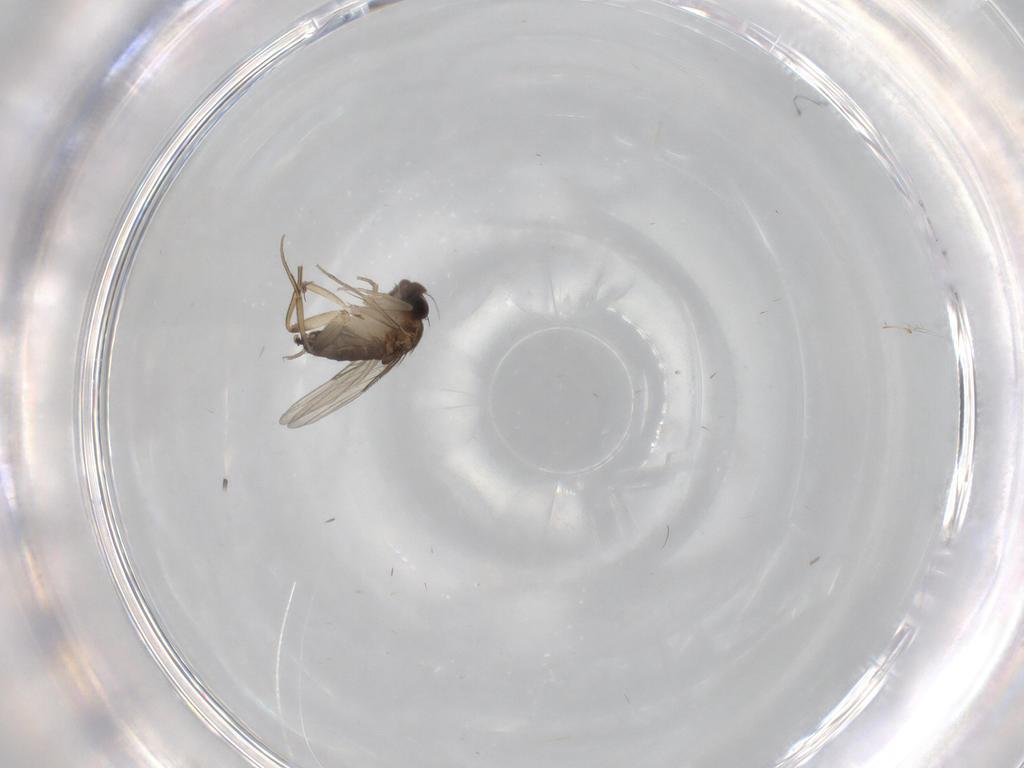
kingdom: Animalia
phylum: Arthropoda
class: Insecta
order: Diptera
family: Phoridae
